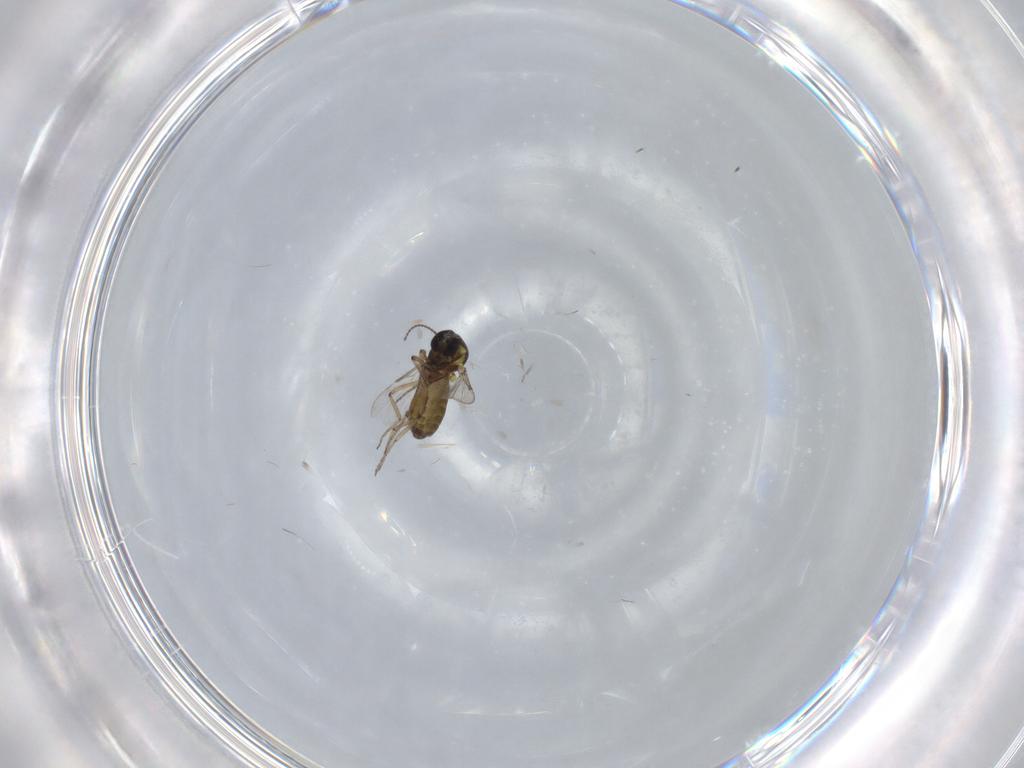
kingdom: Animalia
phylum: Arthropoda
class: Insecta
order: Diptera
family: Ceratopogonidae
